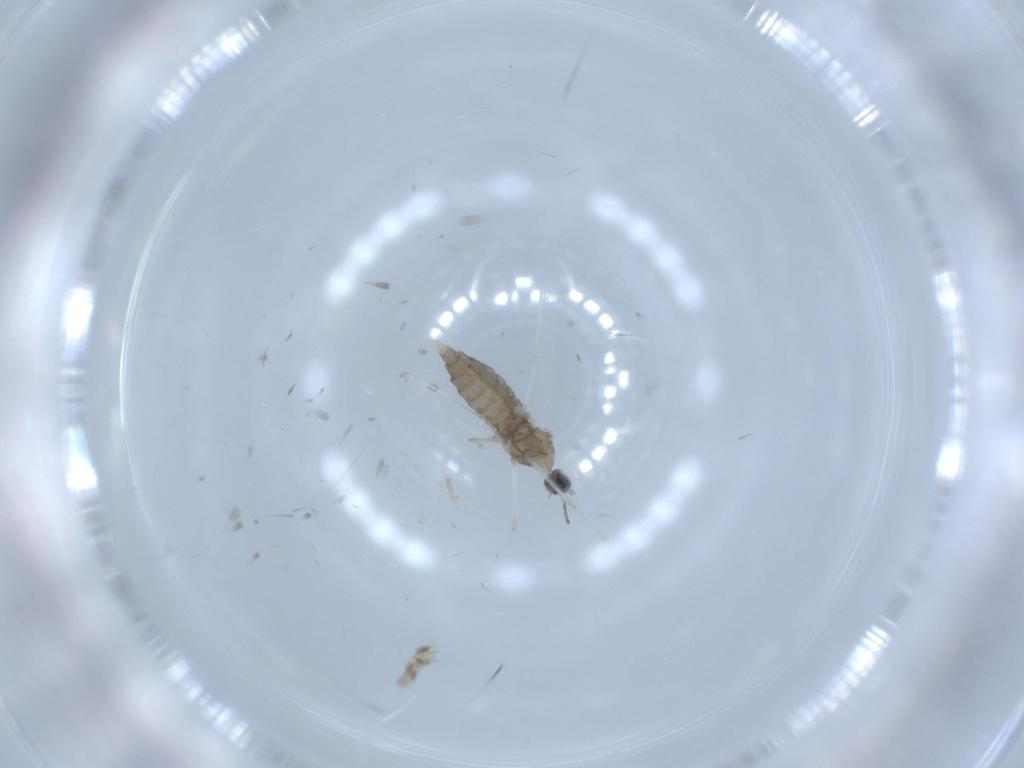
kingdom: Animalia
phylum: Arthropoda
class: Insecta
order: Diptera
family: Cecidomyiidae
